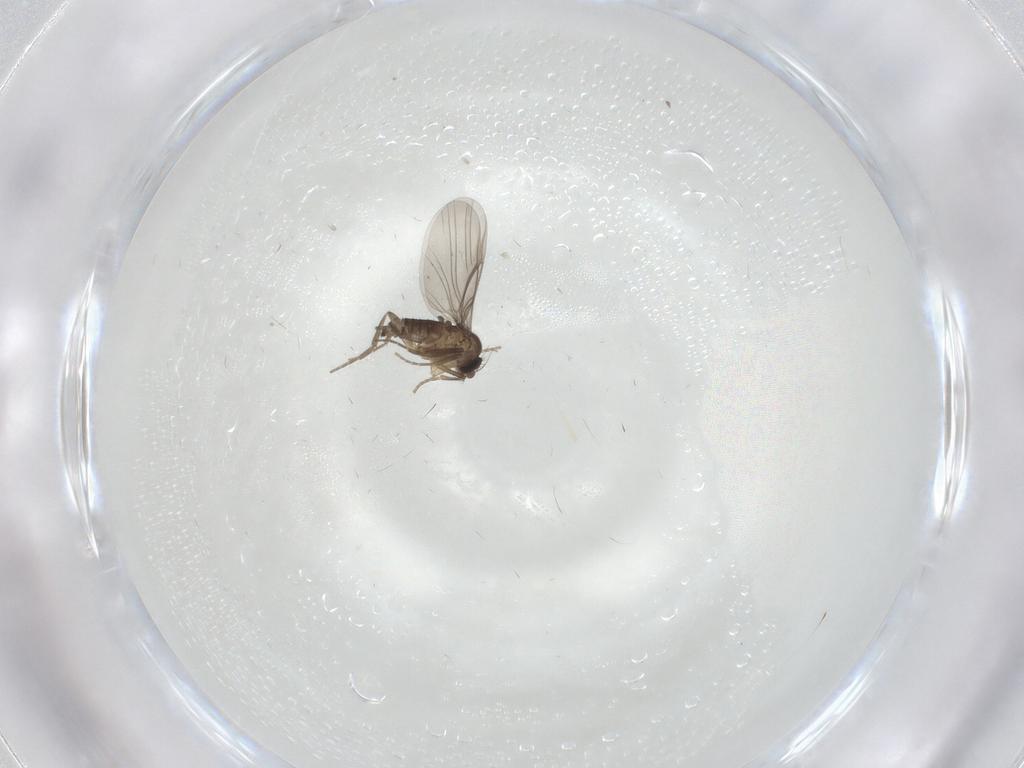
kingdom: Animalia
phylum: Arthropoda
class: Insecta
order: Diptera
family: Phoridae
